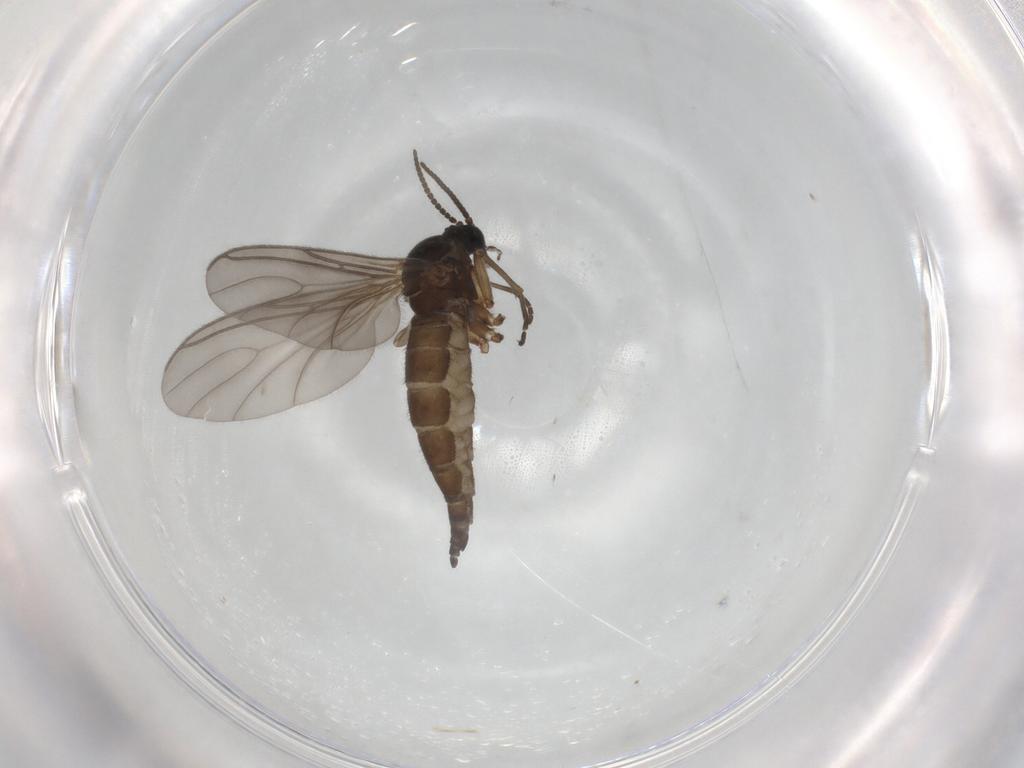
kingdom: Animalia
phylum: Arthropoda
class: Insecta
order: Diptera
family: Sciaridae
